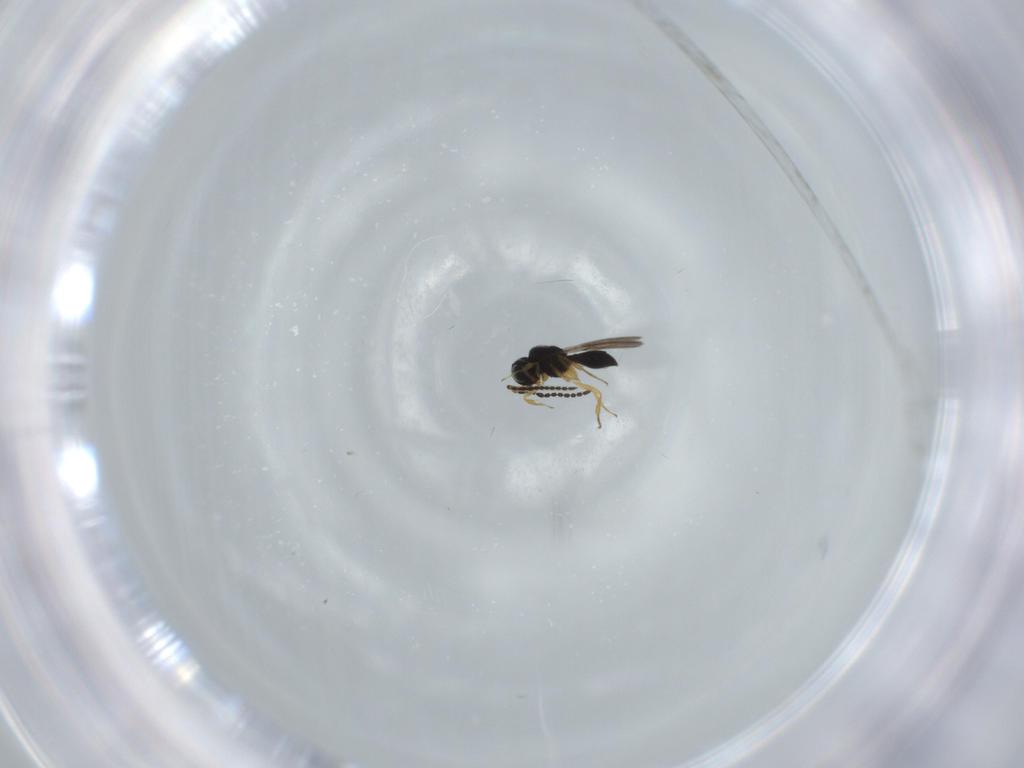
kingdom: Animalia
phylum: Arthropoda
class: Insecta
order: Hymenoptera
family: Scelionidae
